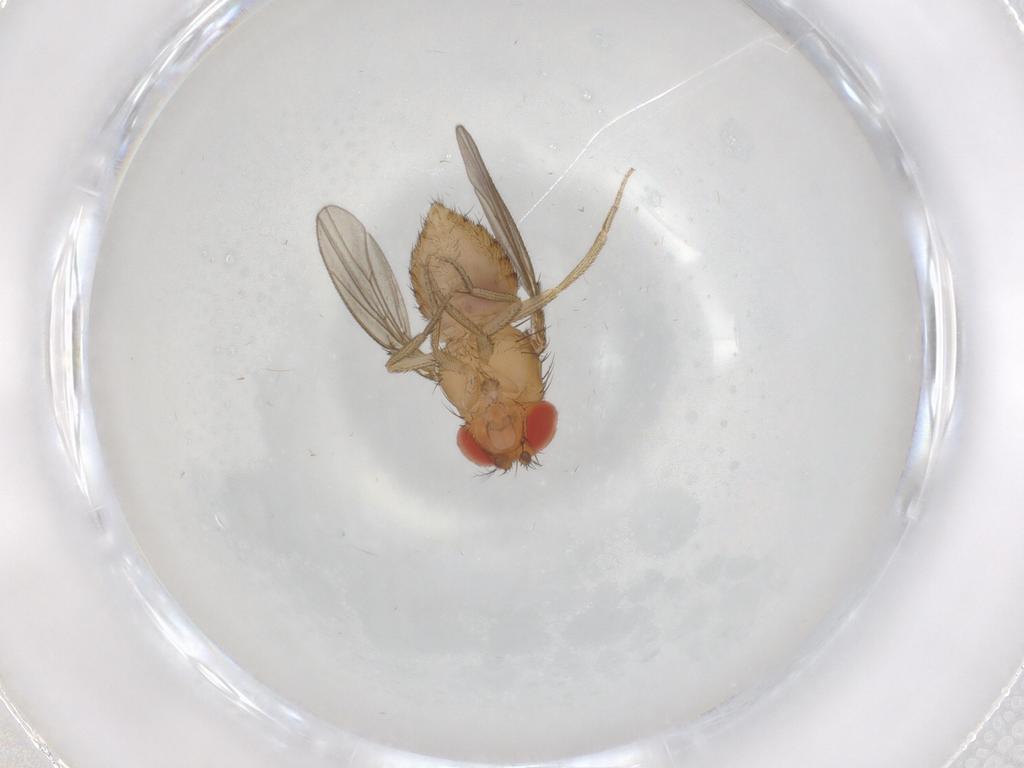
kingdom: Animalia
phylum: Arthropoda
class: Insecta
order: Diptera
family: Drosophilidae
